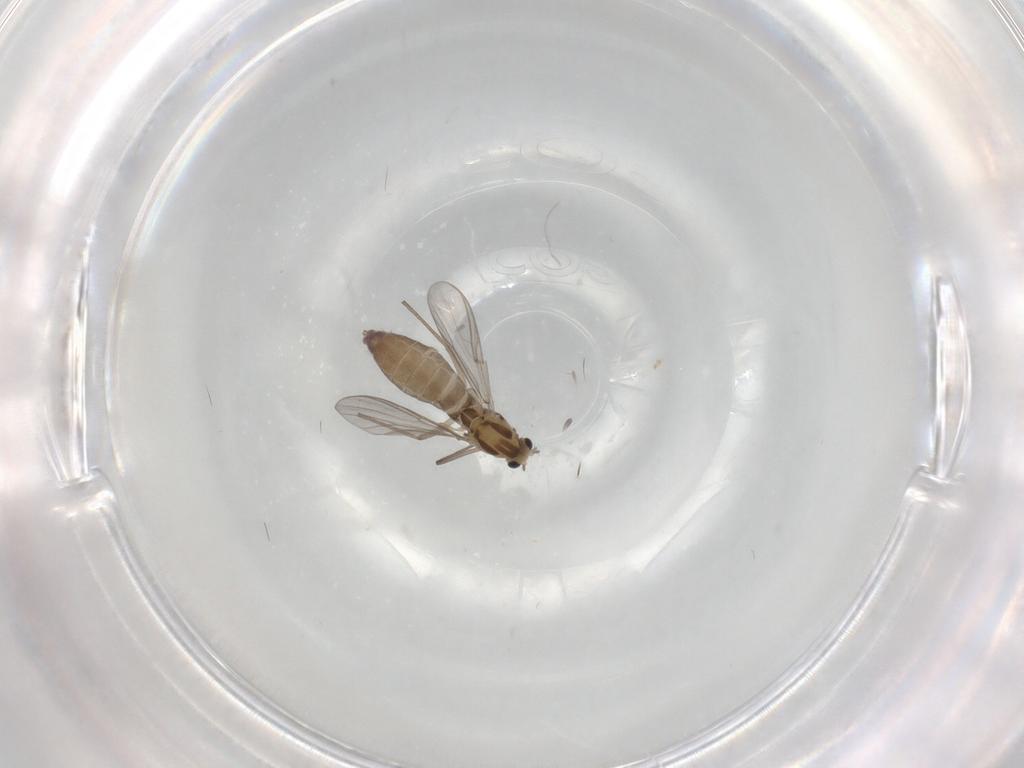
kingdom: Animalia
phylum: Arthropoda
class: Insecta
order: Diptera
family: Chironomidae
